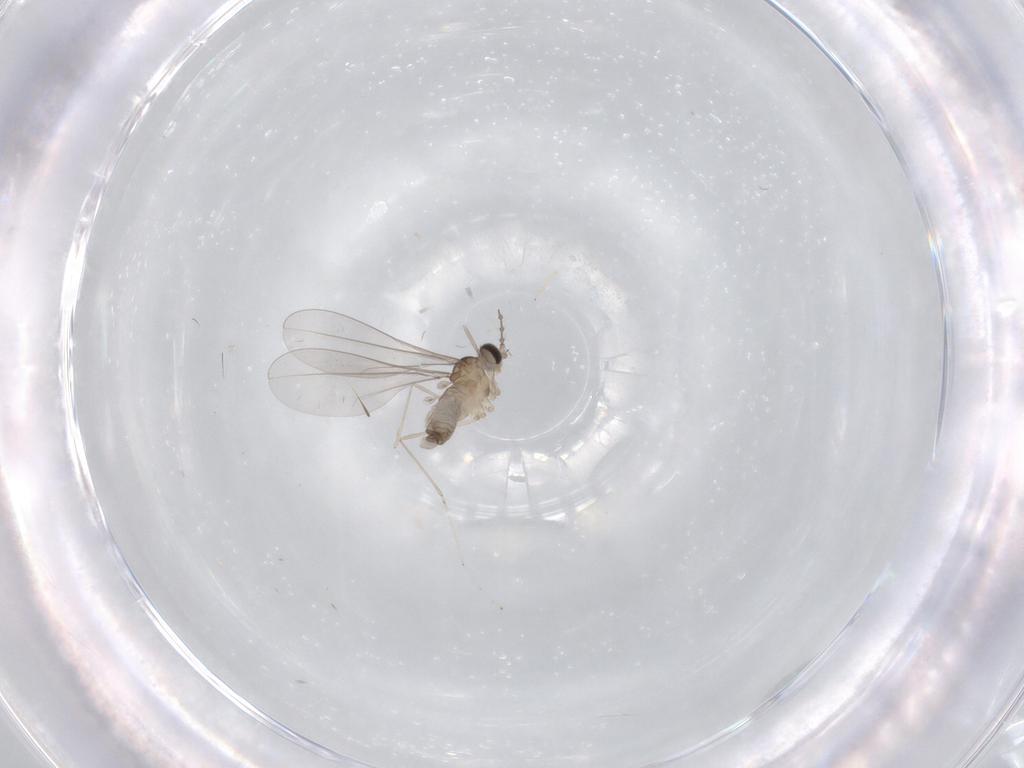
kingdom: Animalia
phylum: Arthropoda
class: Insecta
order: Diptera
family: Cecidomyiidae
